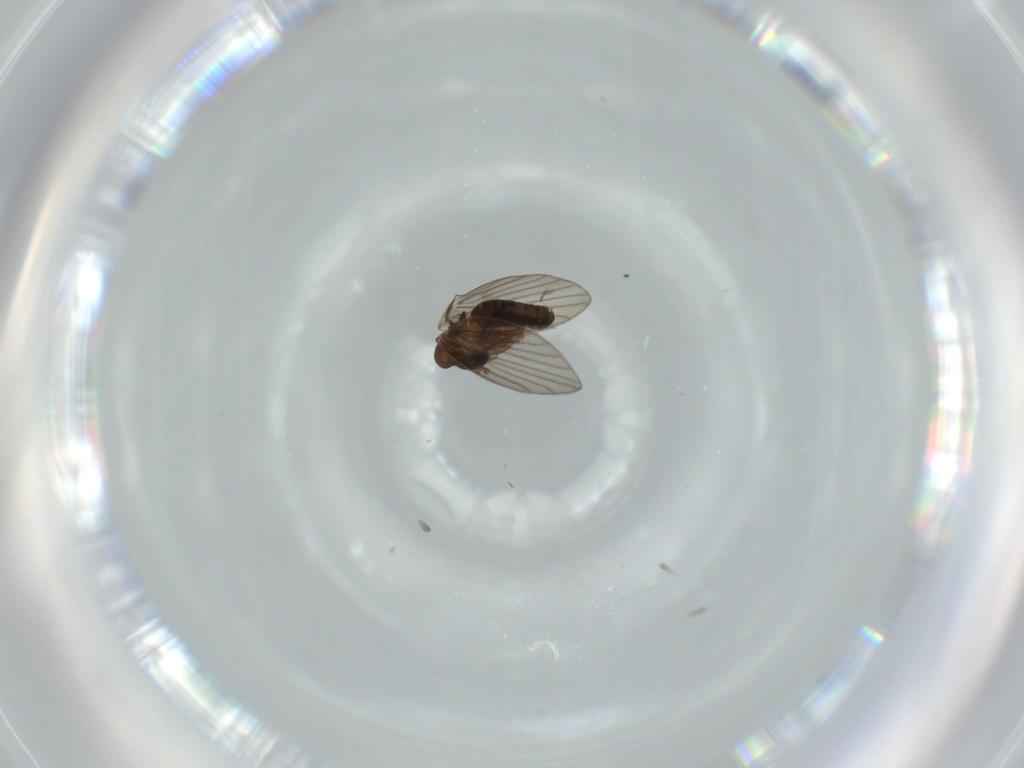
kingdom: Animalia
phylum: Arthropoda
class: Insecta
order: Diptera
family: Psychodidae
